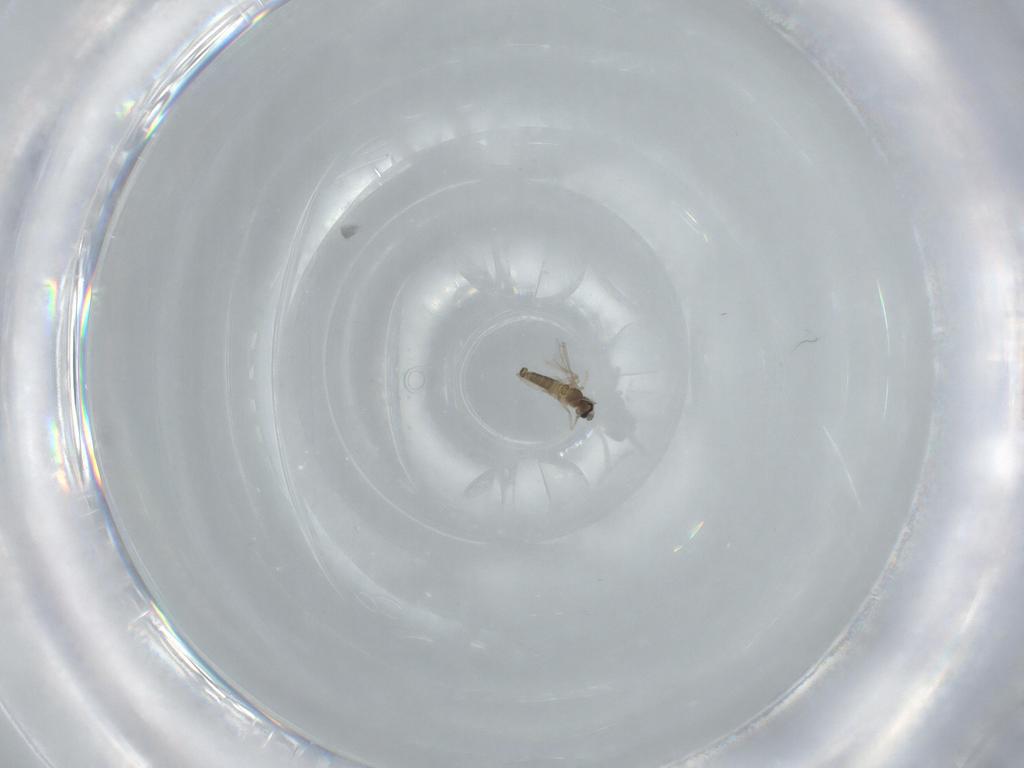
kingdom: Animalia
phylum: Arthropoda
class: Insecta
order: Diptera
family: Cecidomyiidae
